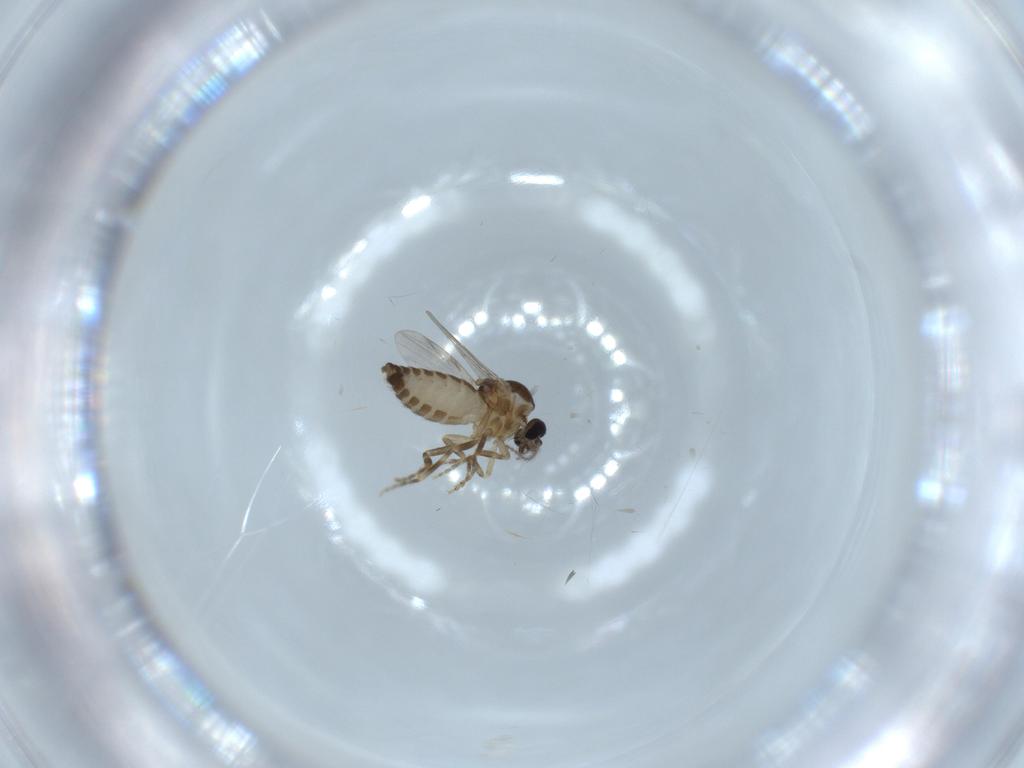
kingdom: Animalia
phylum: Arthropoda
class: Insecta
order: Diptera
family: Ceratopogonidae
